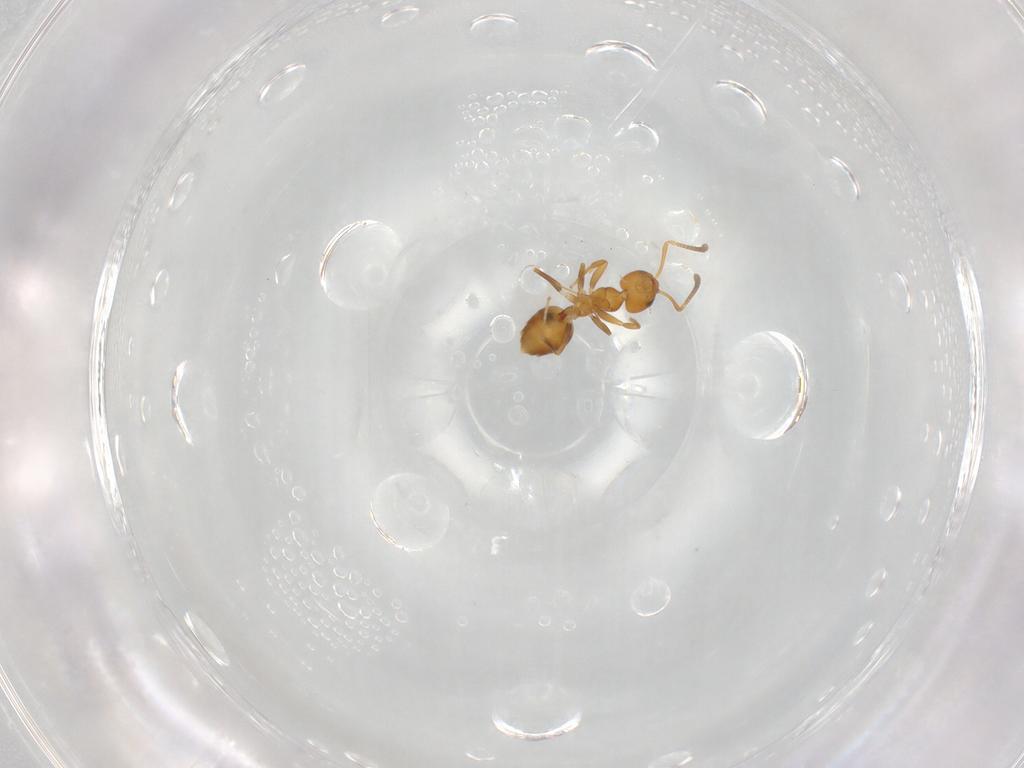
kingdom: Animalia
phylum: Arthropoda
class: Insecta
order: Hymenoptera
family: Formicidae
